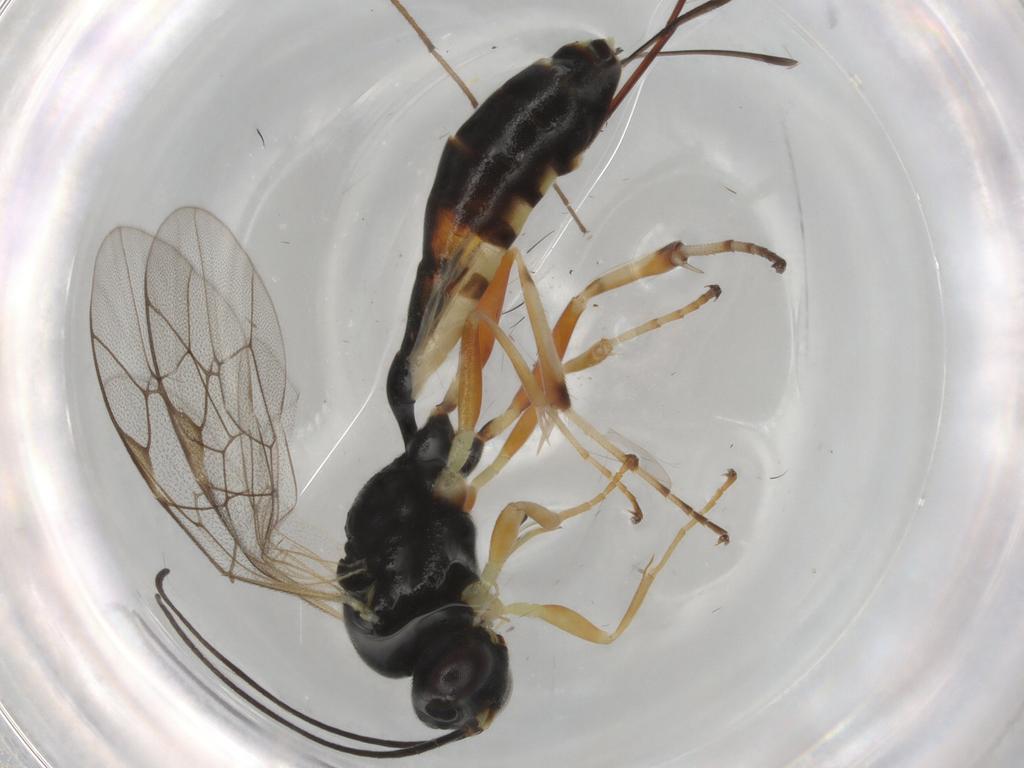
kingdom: Animalia
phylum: Arthropoda
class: Insecta
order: Hymenoptera
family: Ichneumonidae
